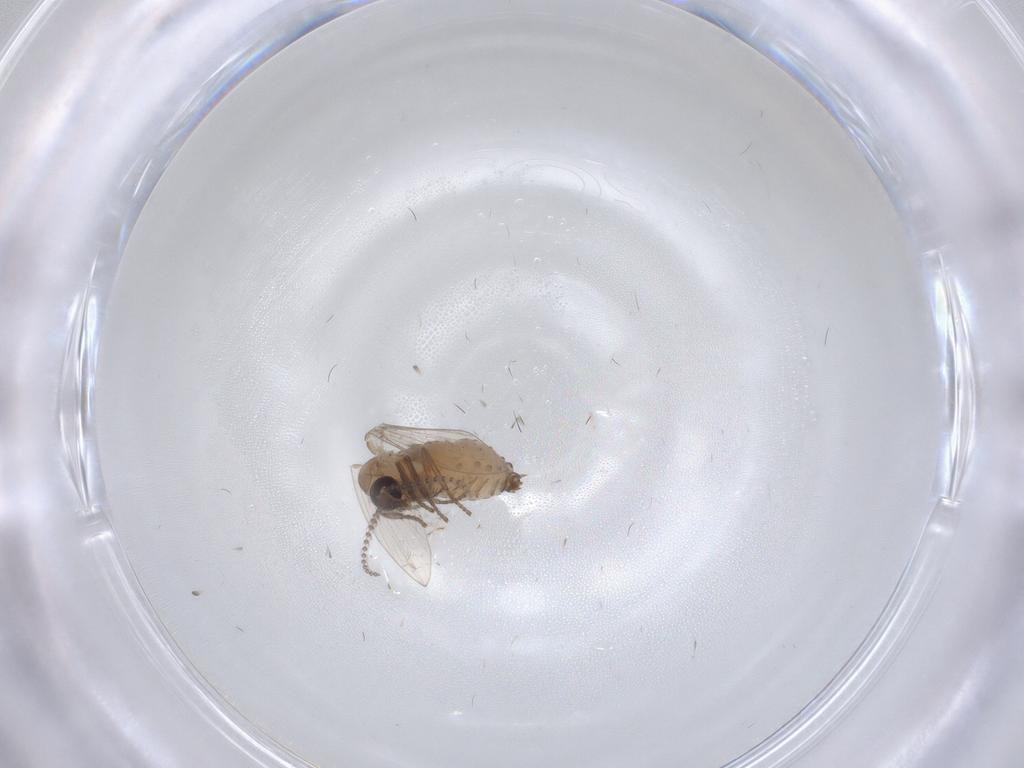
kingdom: Animalia
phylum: Arthropoda
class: Insecta
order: Diptera
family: Psychodidae
